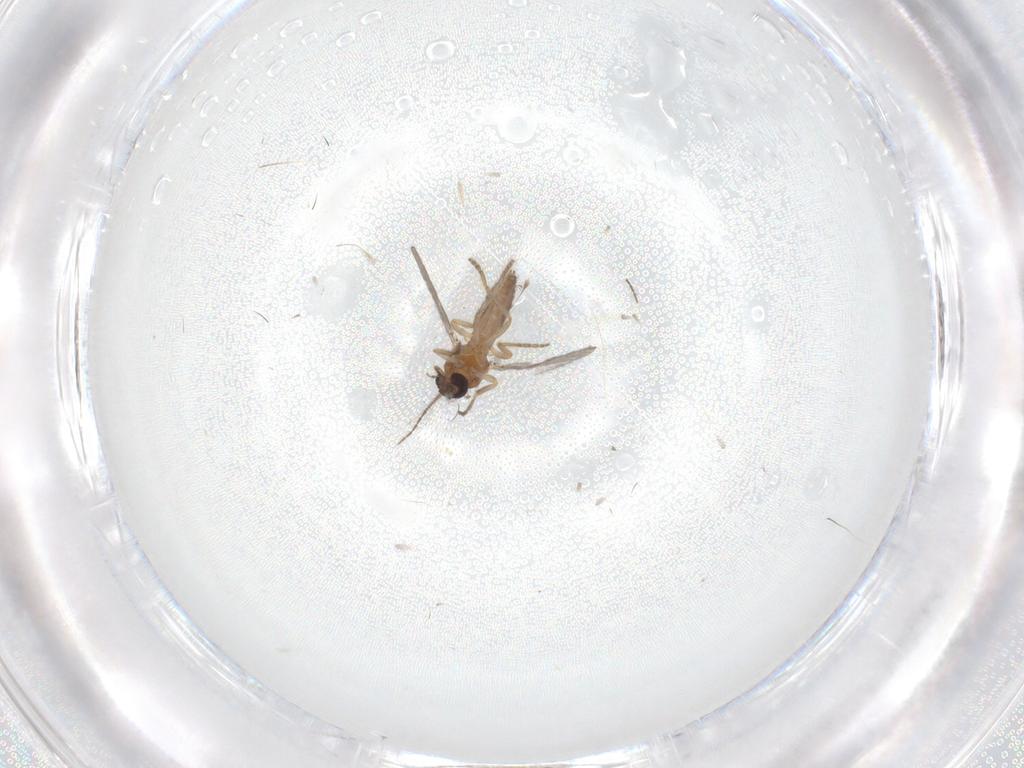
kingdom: Animalia
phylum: Arthropoda
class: Insecta
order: Diptera
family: Ceratopogonidae
